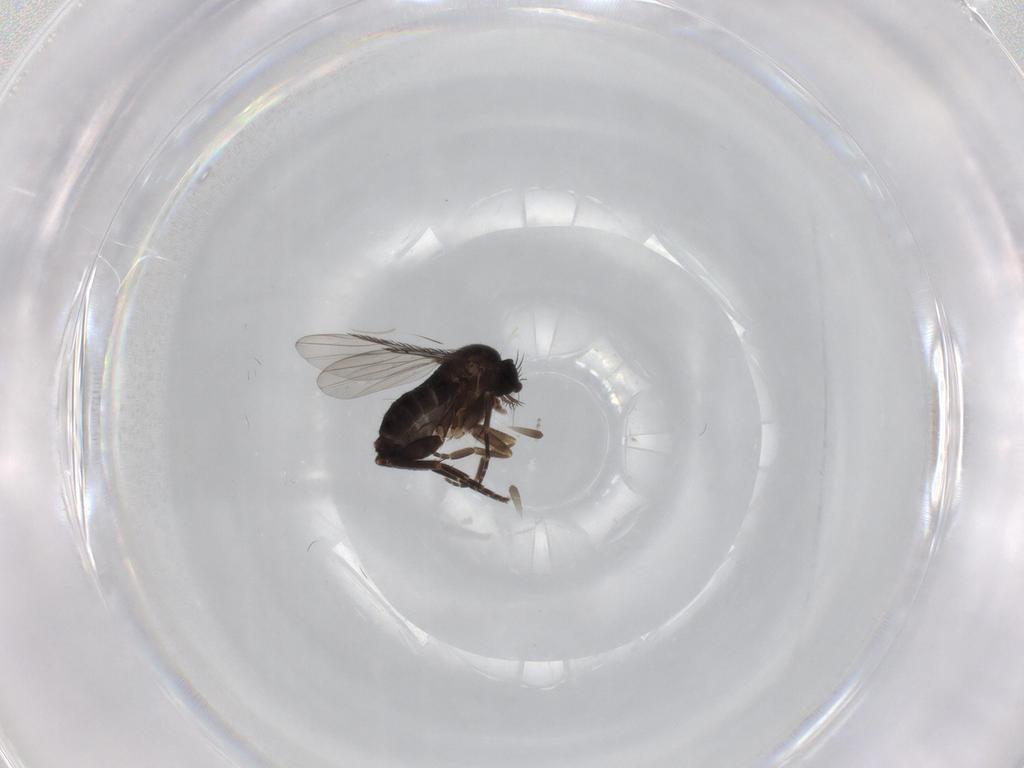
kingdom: Animalia
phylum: Arthropoda
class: Insecta
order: Diptera
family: Phoridae
